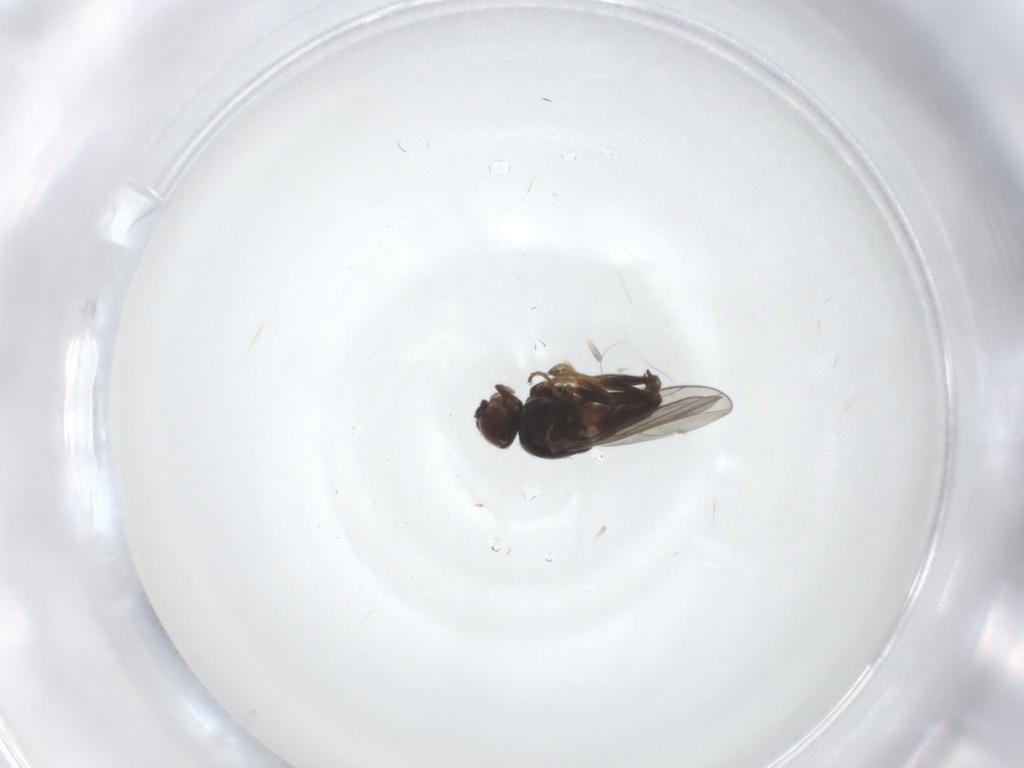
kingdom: Animalia
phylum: Arthropoda
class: Insecta
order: Diptera
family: Chloropidae
